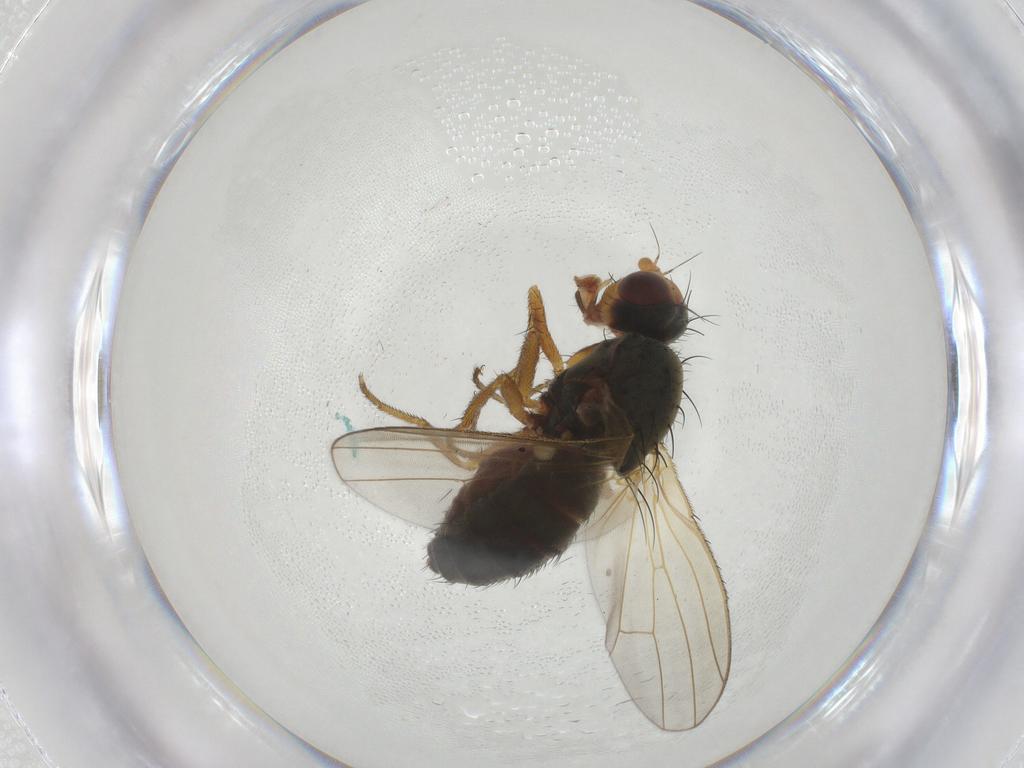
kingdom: Animalia
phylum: Arthropoda
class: Insecta
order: Diptera
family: Heleomyzidae
